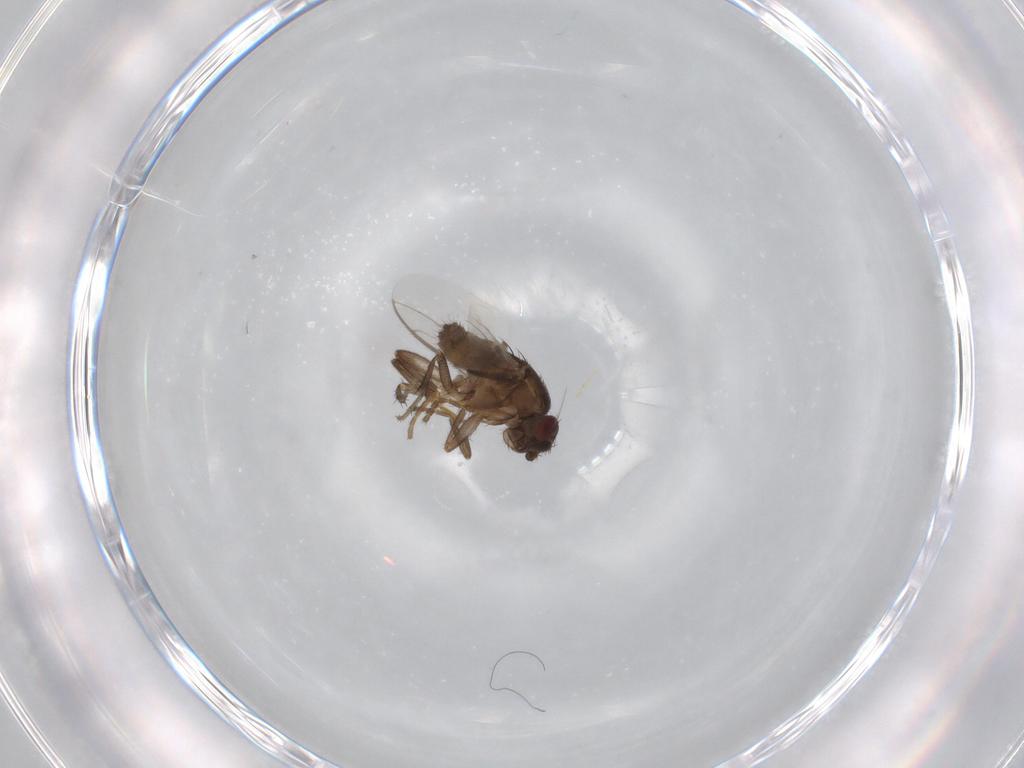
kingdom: Animalia
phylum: Arthropoda
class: Insecta
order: Diptera
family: Sphaeroceridae
